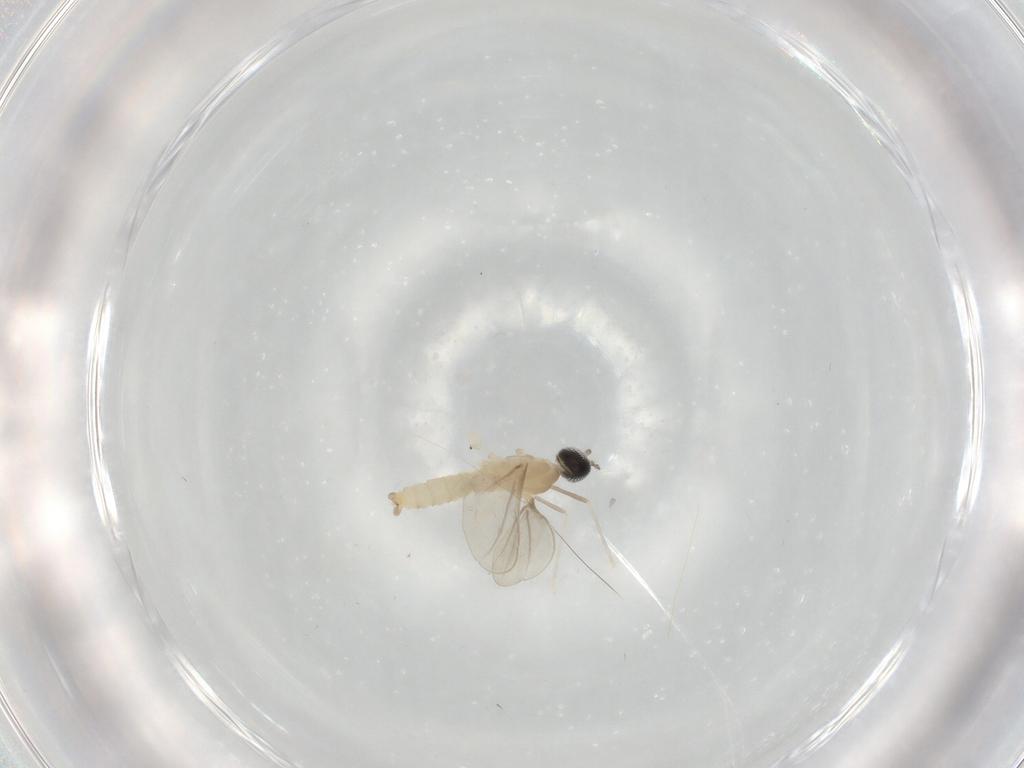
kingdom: Animalia
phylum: Arthropoda
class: Insecta
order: Diptera
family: Cecidomyiidae
